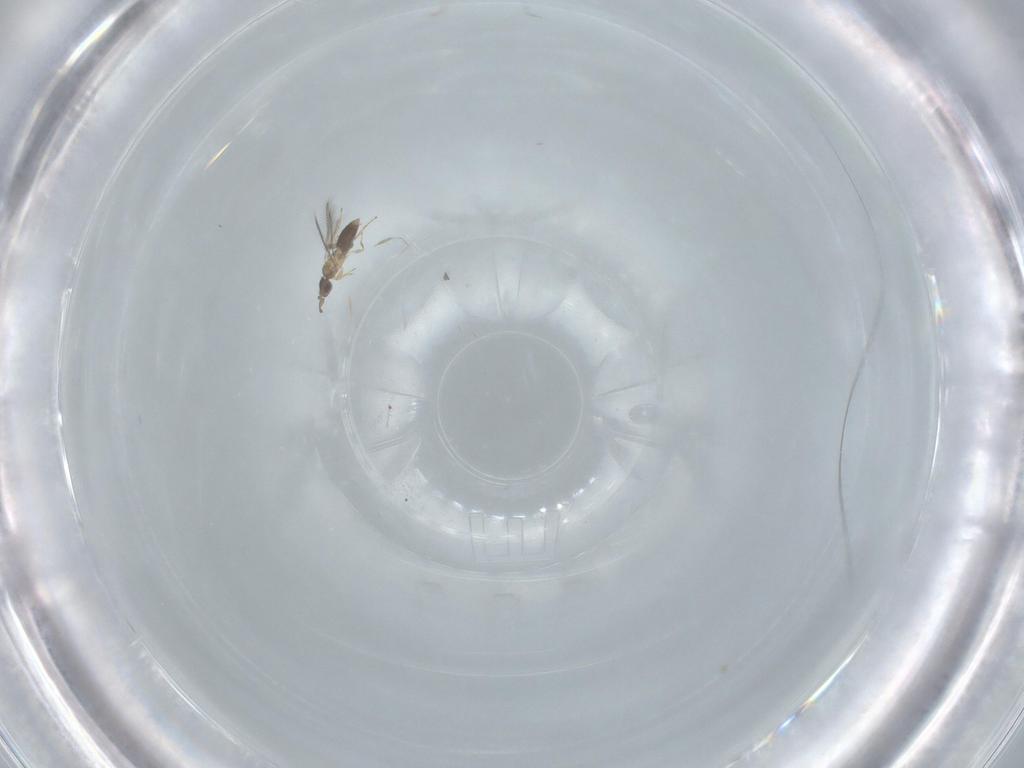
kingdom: Animalia
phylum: Arthropoda
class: Insecta
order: Hymenoptera
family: Mymaridae
